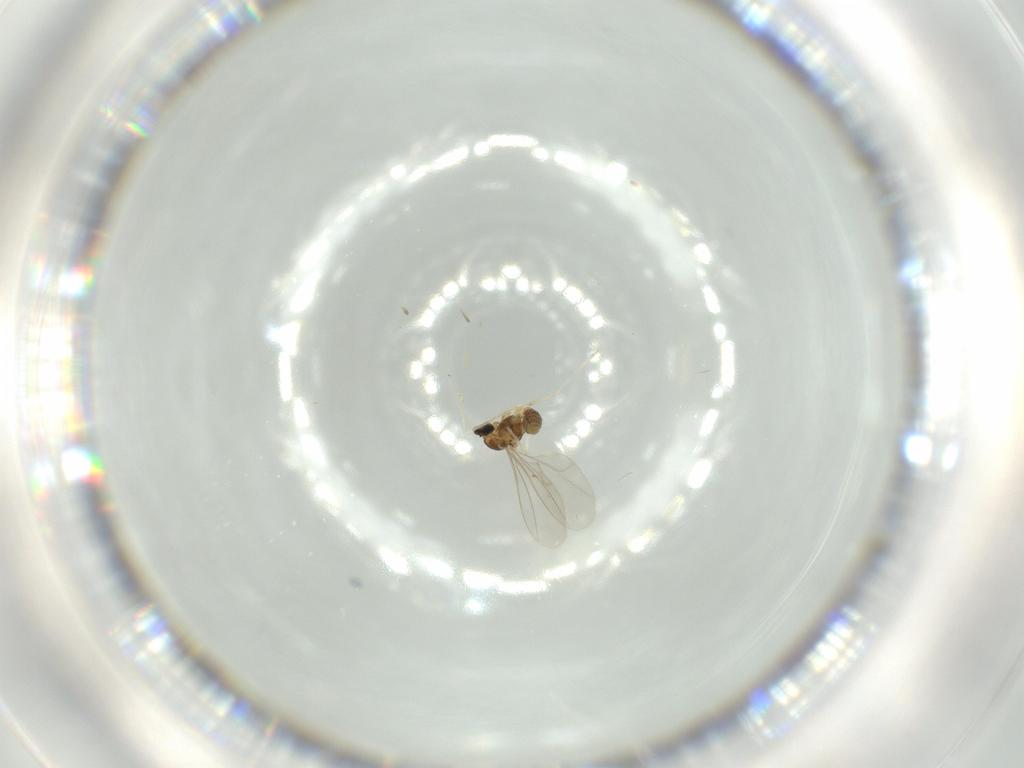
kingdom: Animalia
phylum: Arthropoda
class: Insecta
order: Diptera
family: Cecidomyiidae
